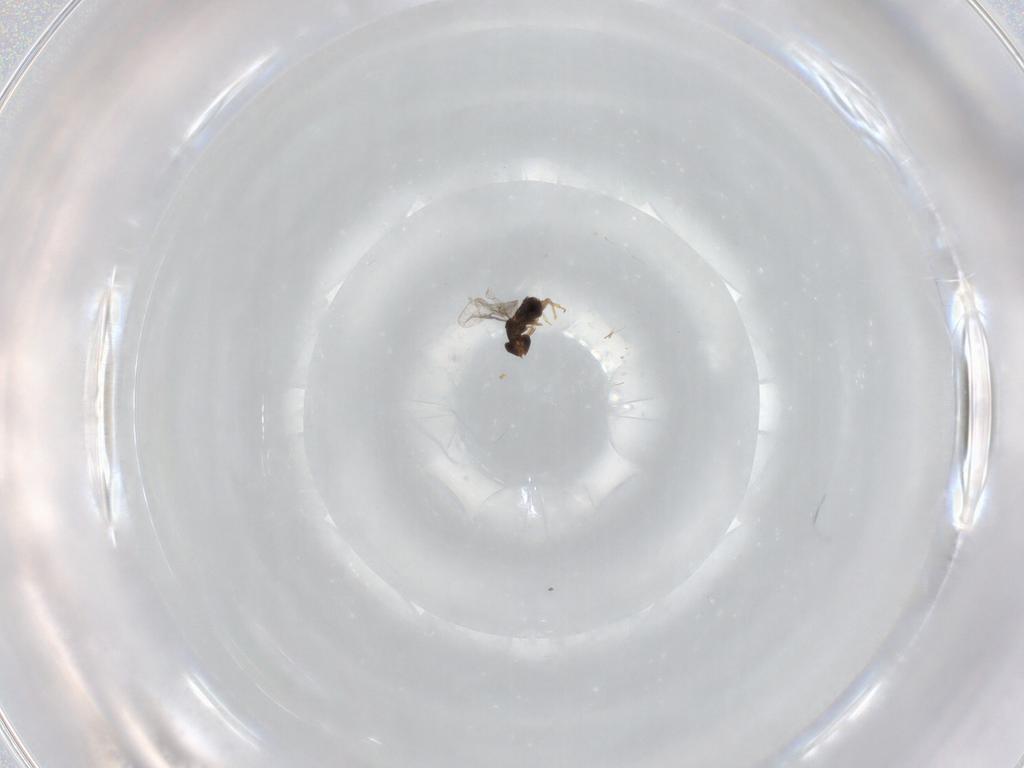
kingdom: Animalia
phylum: Arthropoda
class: Insecta
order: Hymenoptera
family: Trichogrammatidae
